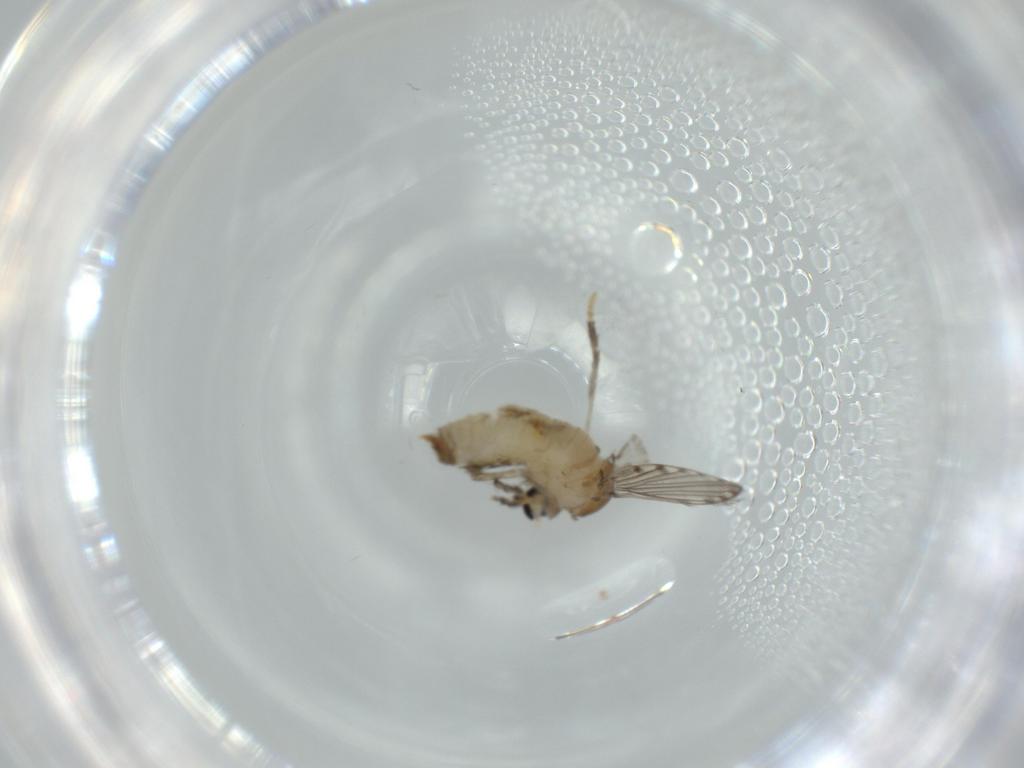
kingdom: Animalia
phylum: Arthropoda
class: Insecta
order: Diptera
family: Psychodidae
